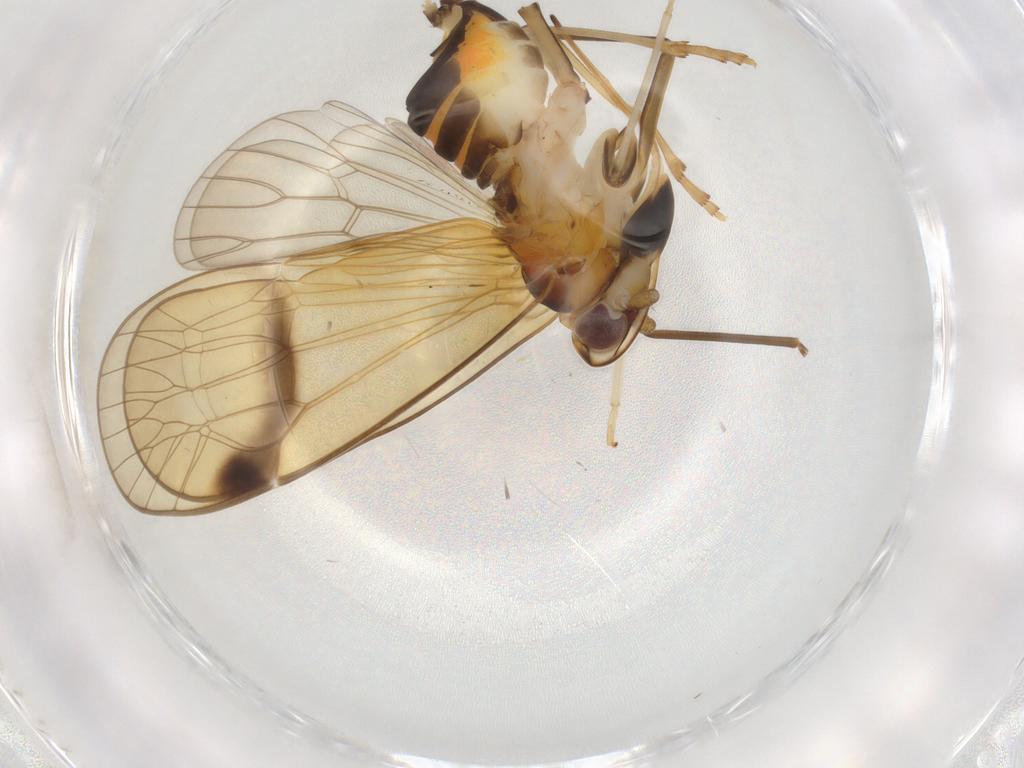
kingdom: Animalia
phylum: Arthropoda
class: Insecta
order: Hemiptera
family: Kinnaridae
